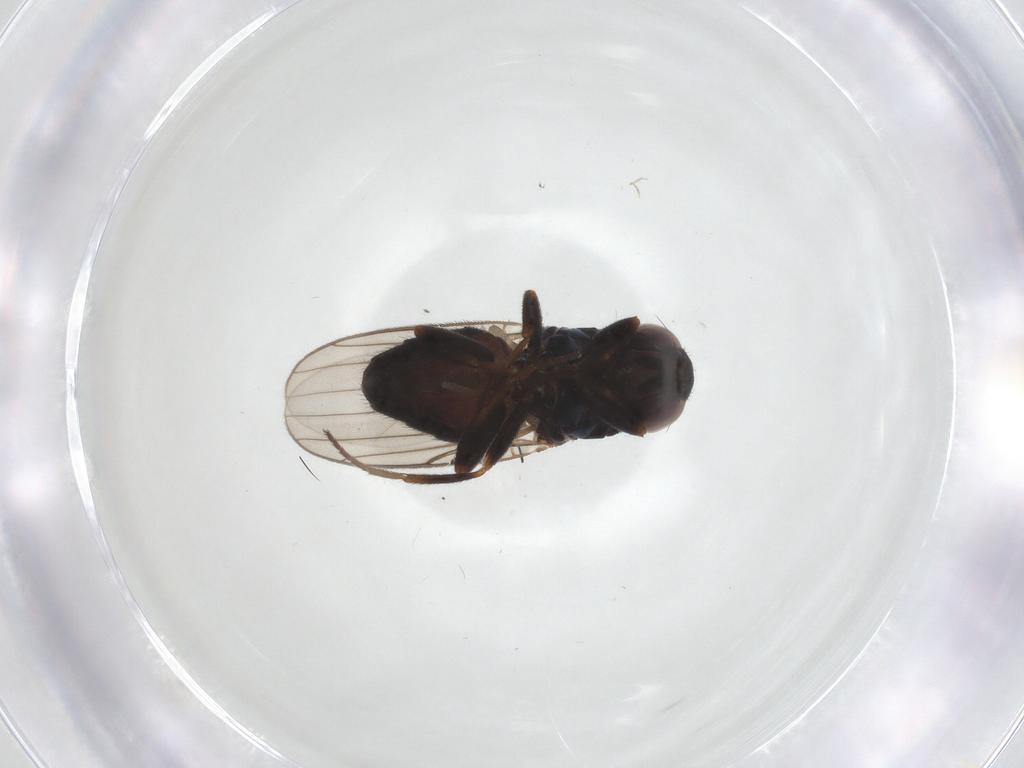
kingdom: Animalia
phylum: Arthropoda
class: Insecta
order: Diptera
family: Chloropidae
